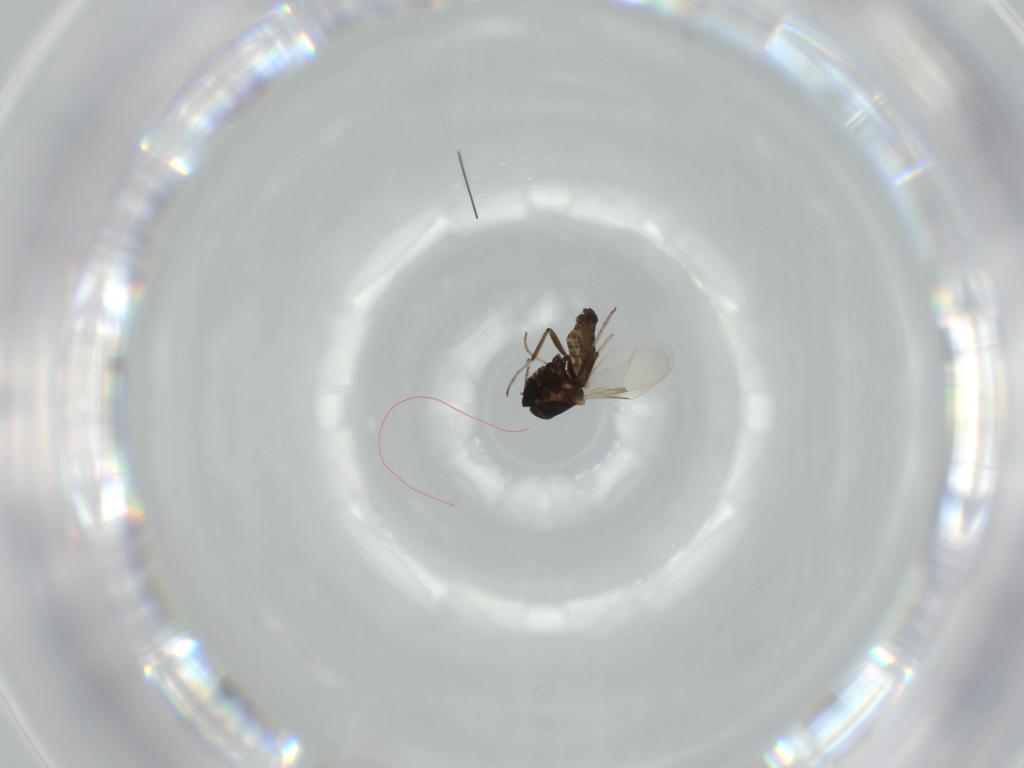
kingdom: Animalia
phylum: Arthropoda
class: Insecta
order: Diptera
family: Ceratopogonidae
